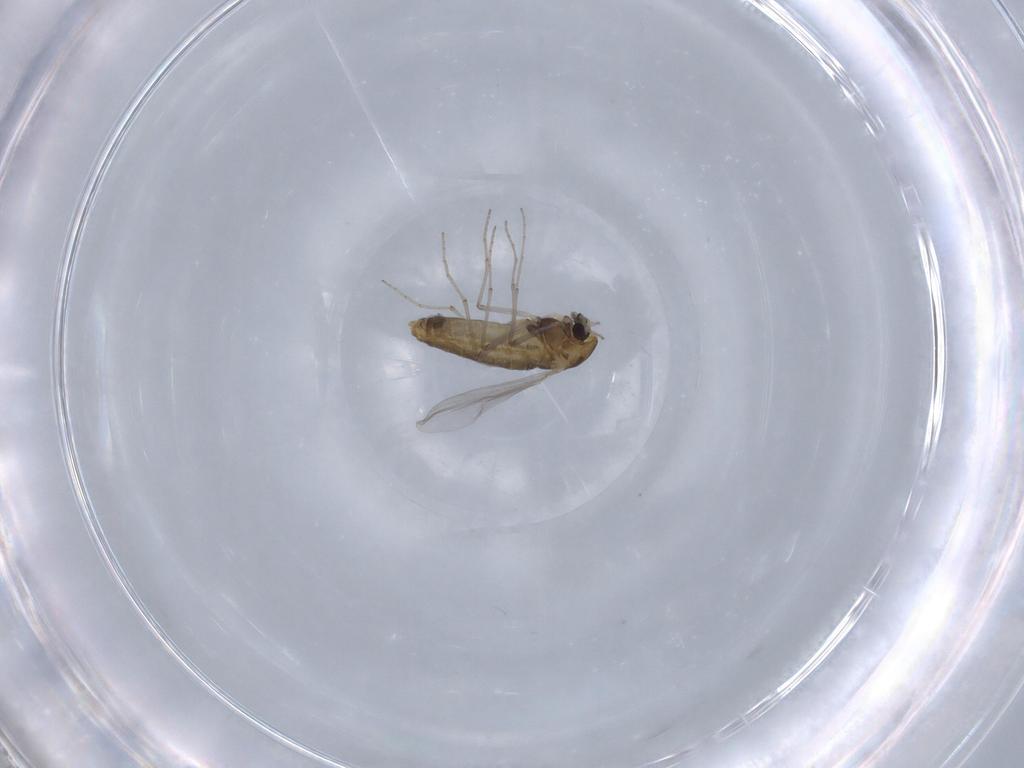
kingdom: Animalia
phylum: Arthropoda
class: Insecta
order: Diptera
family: Chironomidae
